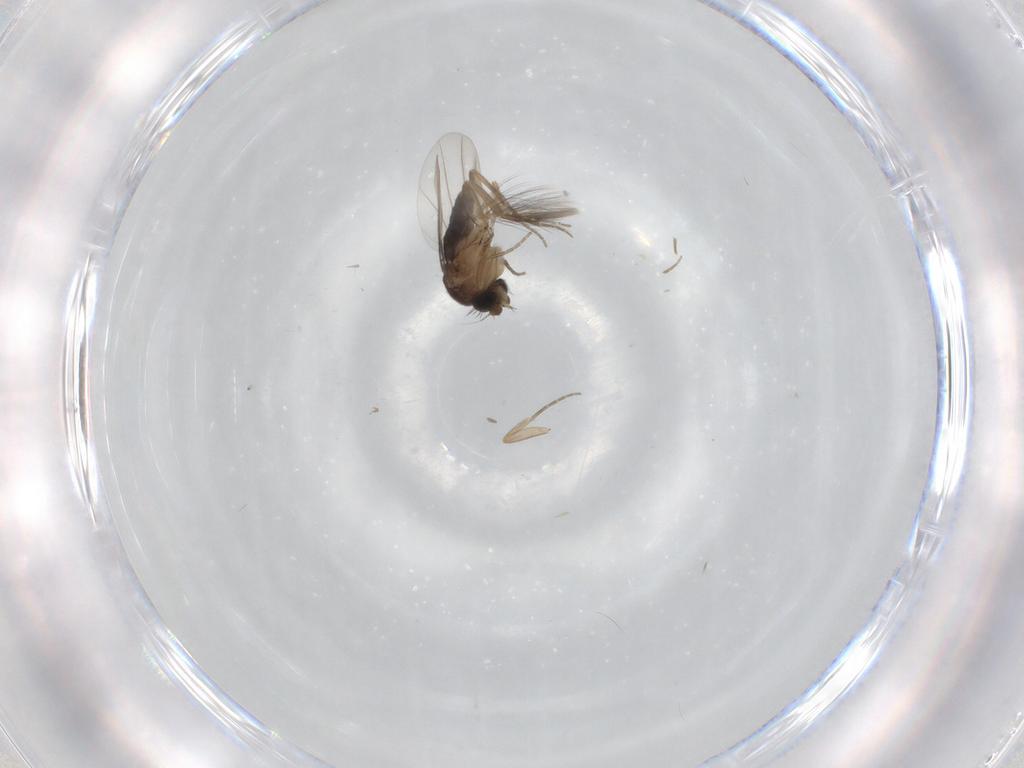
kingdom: Animalia
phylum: Arthropoda
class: Insecta
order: Diptera
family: Phoridae
